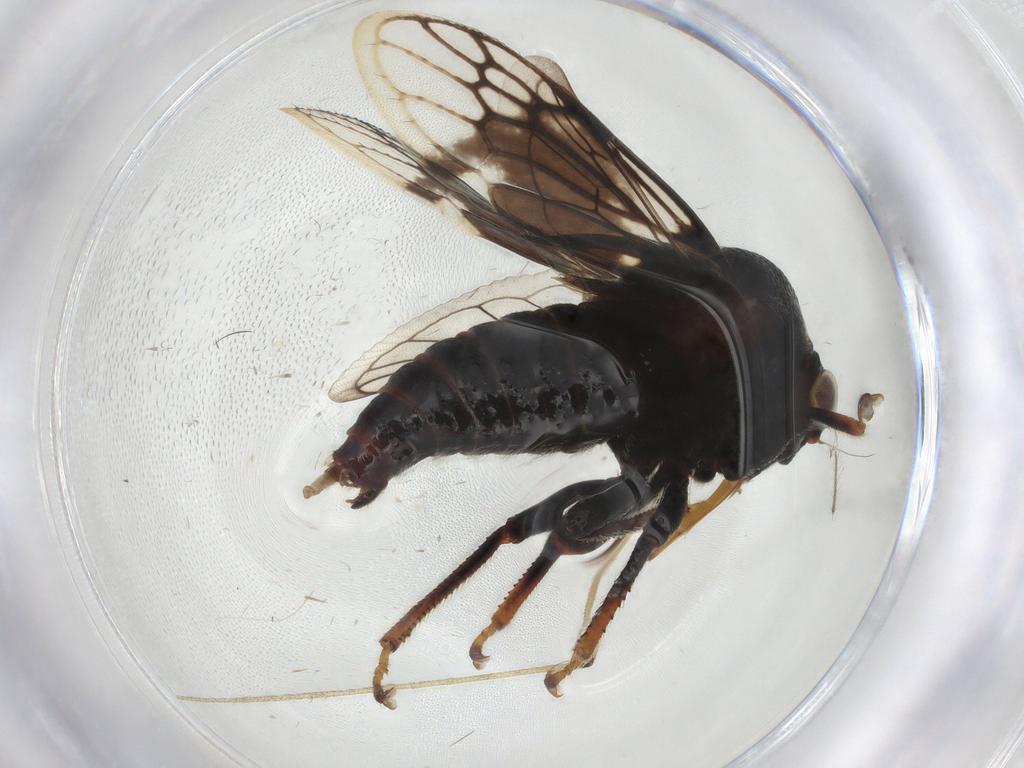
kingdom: Animalia
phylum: Arthropoda
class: Insecta
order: Hemiptera
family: Membracidae
